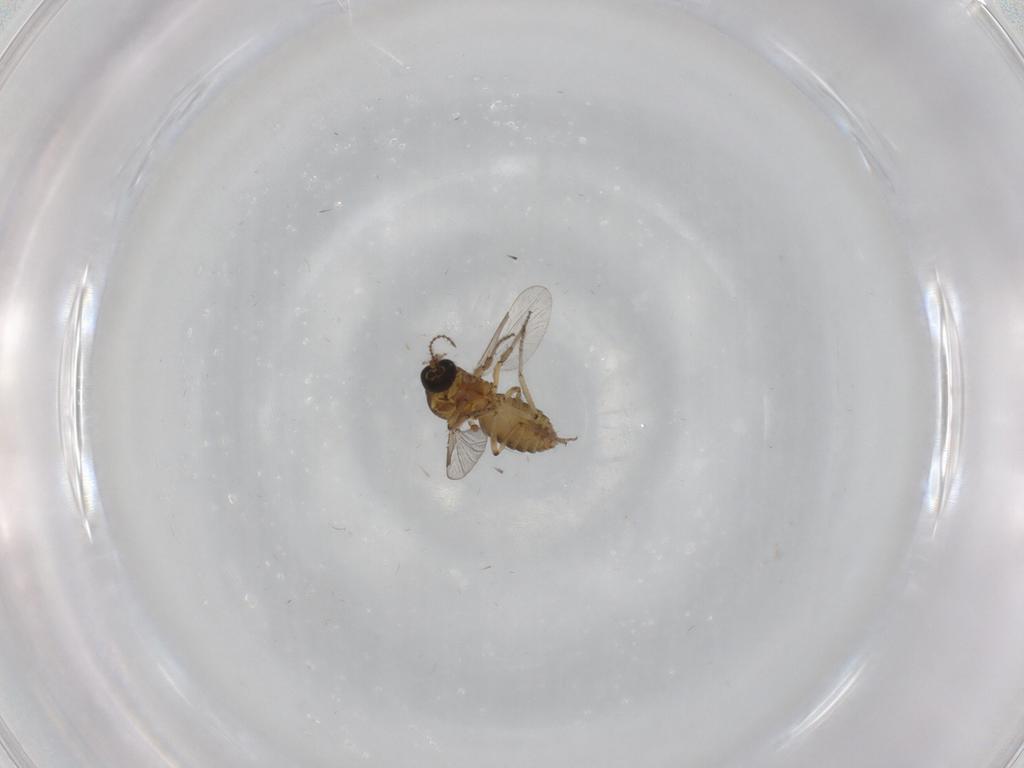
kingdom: Animalia
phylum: Arthropoda
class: Insecta
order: Diptera
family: Ceratopogonidae
